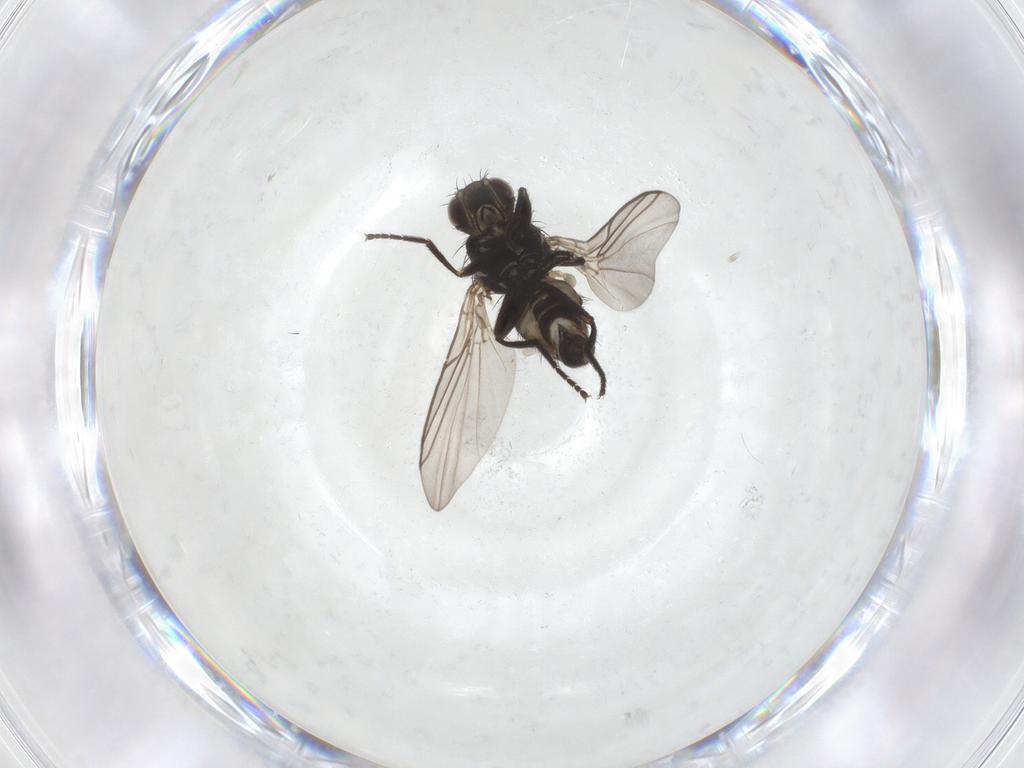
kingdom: Animalia
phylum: Arthropoda
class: Insecta
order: Diptera
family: Agromyzidae
